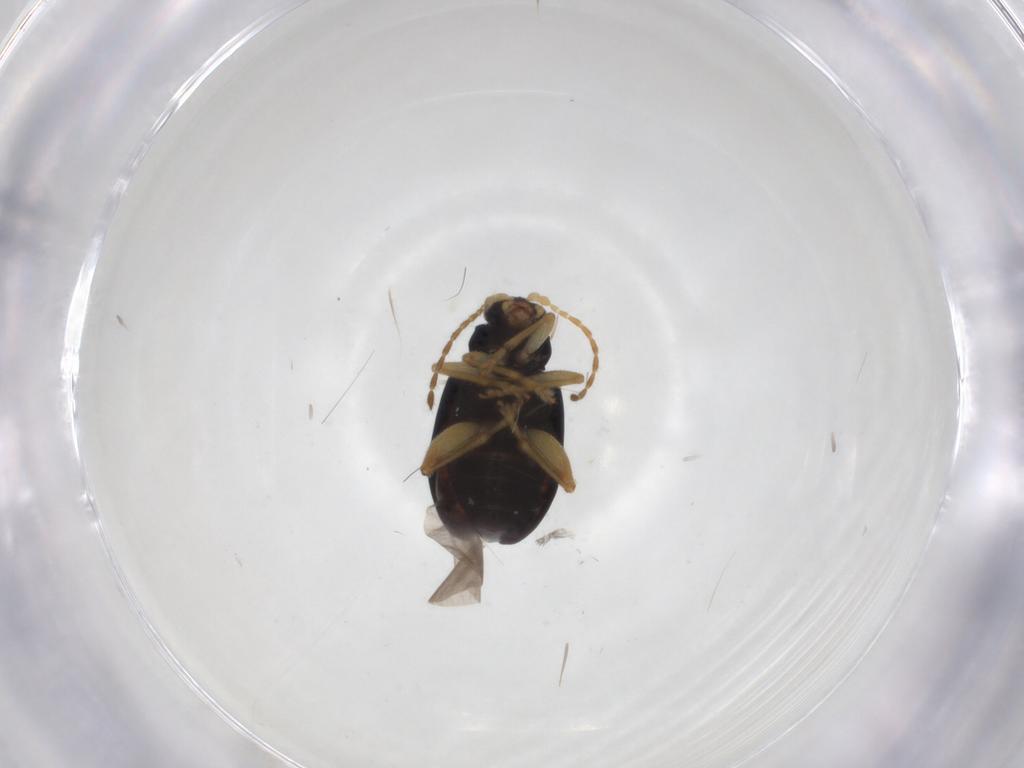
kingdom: Animalia
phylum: Arthropoda
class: Insecta
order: Coleoptera
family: Chrysomelidae
